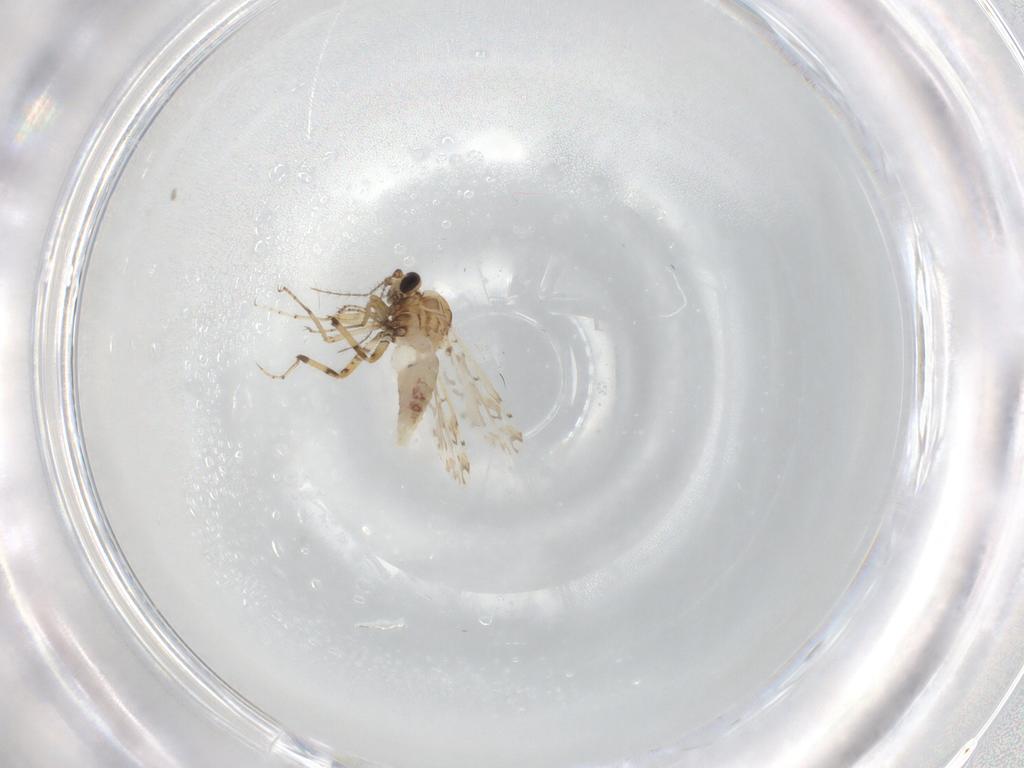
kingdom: Animalia
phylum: Arthropoda
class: Insecta
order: Diptera
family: Ceratopogonidae
